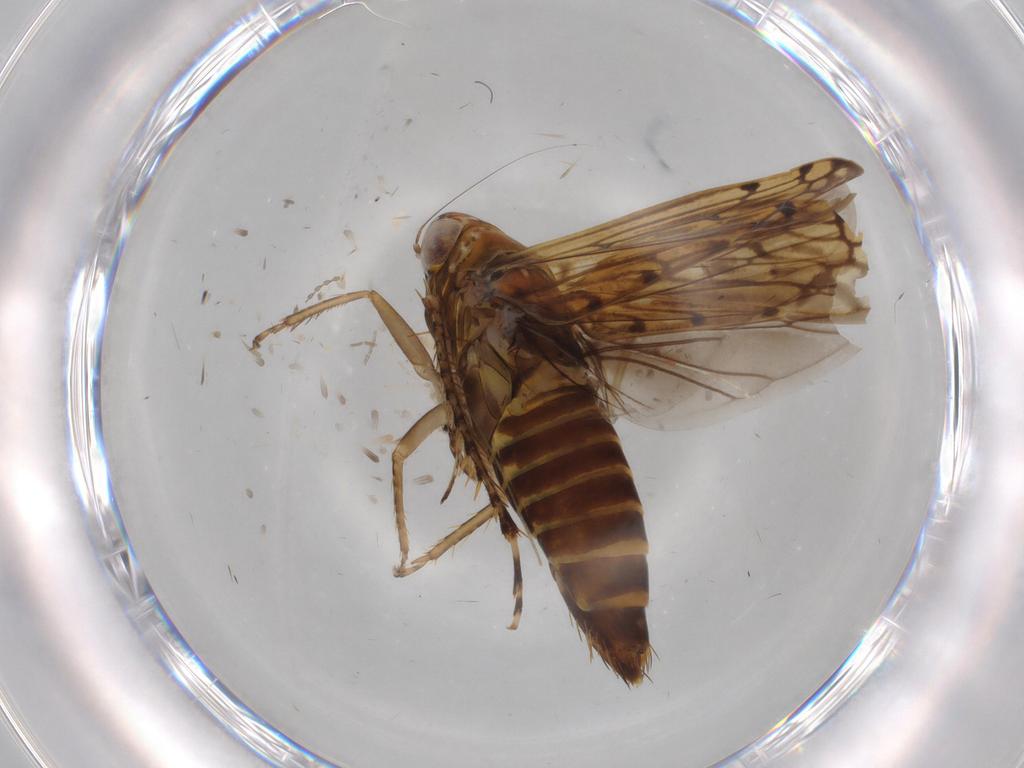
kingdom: Animalia
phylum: Arthropoda
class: Insecta
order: Hemiptera
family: Cicadellidae
